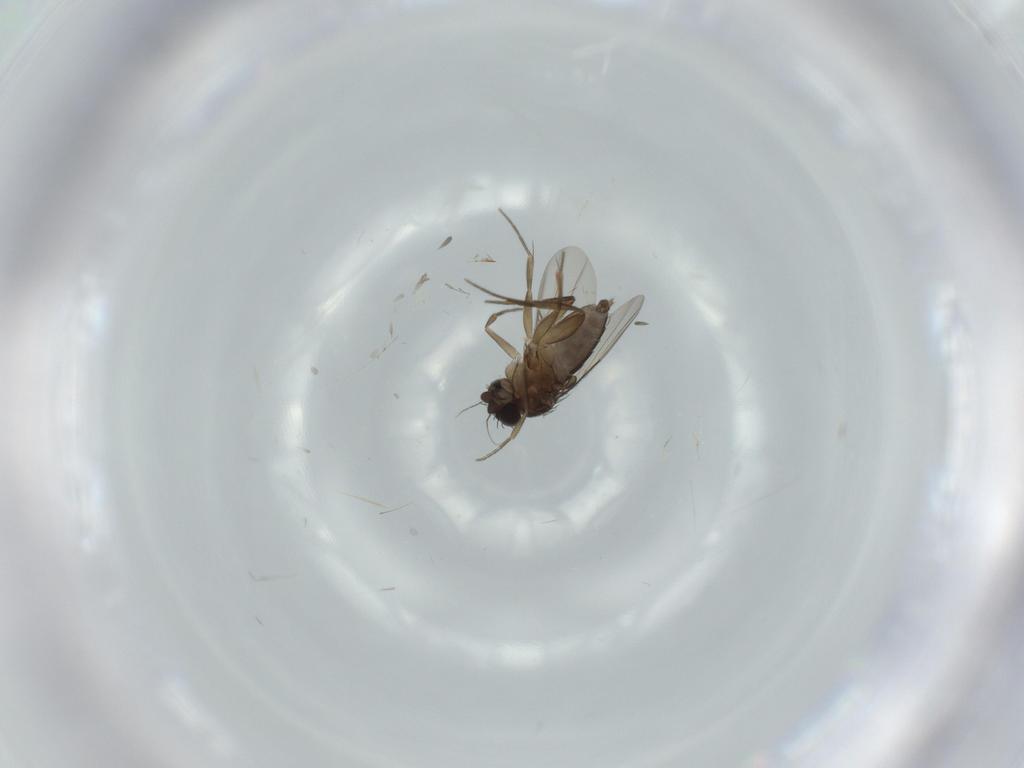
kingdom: Animalia
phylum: Arthropoda
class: Insecta
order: Diptera
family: Phoridae
